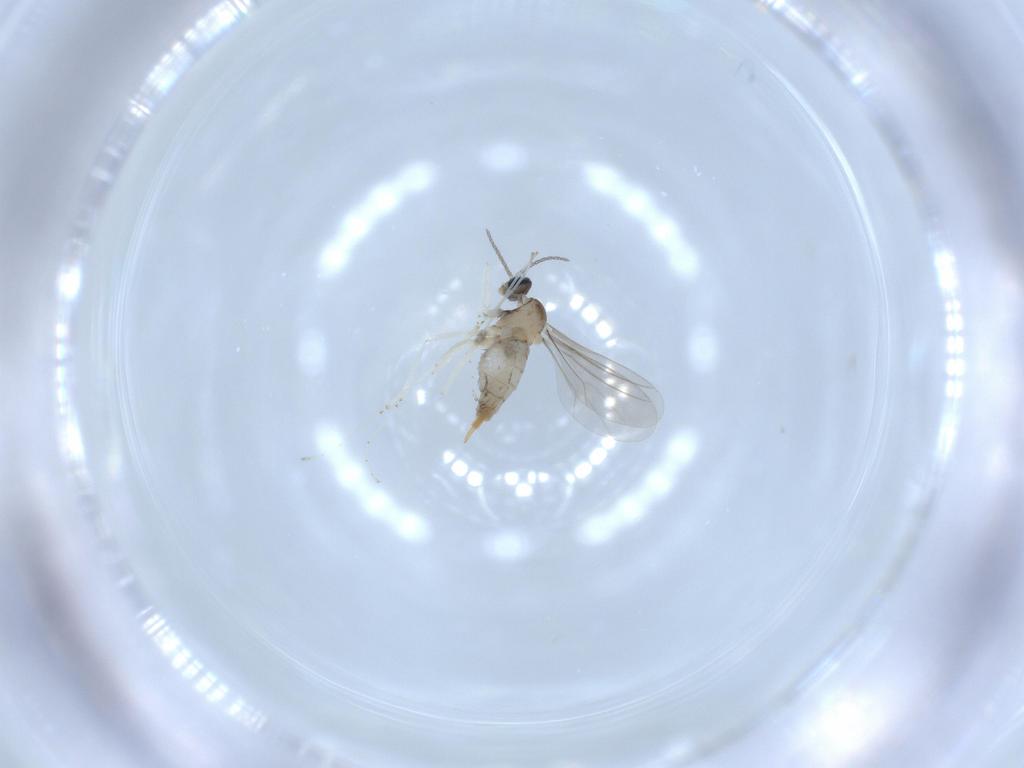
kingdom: Animalia
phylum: Arthropoda
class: Insecta
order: Diptera
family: Cecidomyiidae
